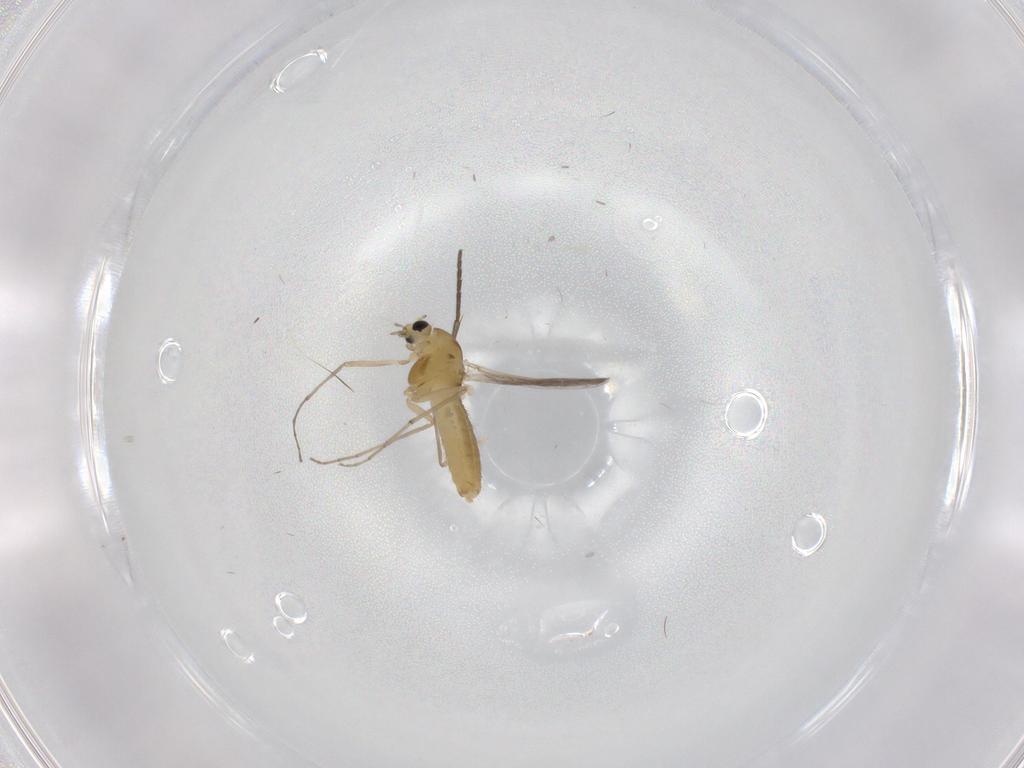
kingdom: Animalia
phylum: Arthropoda
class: Insecta
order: Diptera
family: Chironomidae
